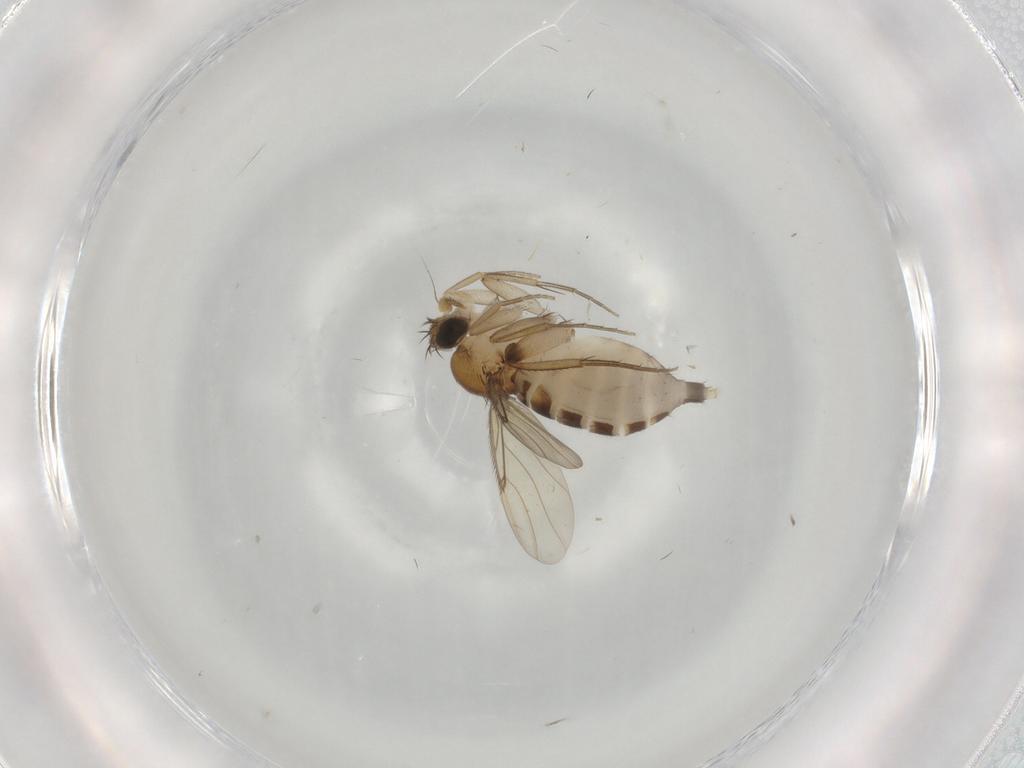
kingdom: Animalia
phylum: Arthropoda
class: Insecta
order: Diptera
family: Phoridae
